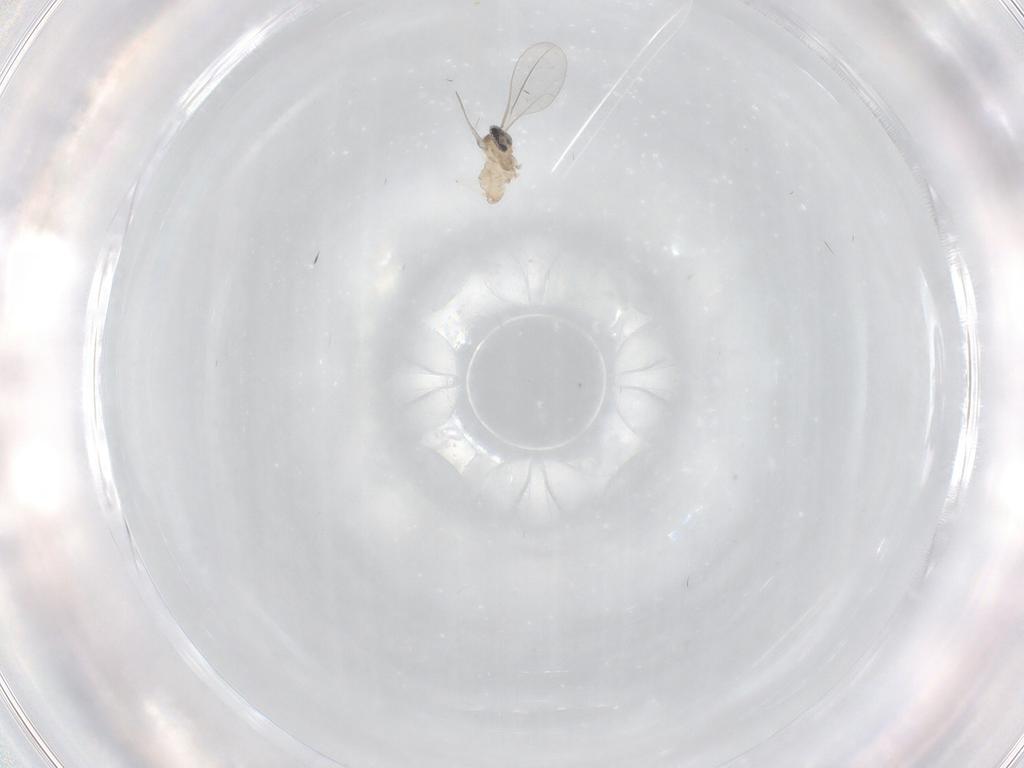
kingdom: Animalia
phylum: Arthropoda
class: Insecta
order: Diptera
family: Cecidomyiidae
